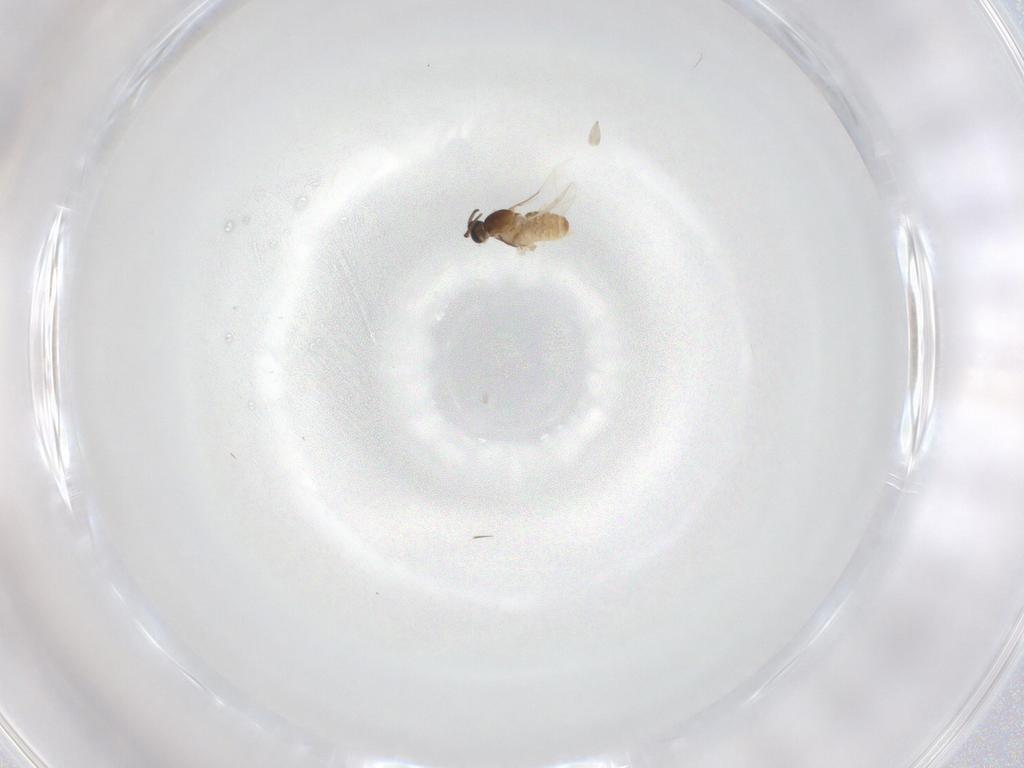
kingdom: Animalia
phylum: Arthropoda
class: Insecta
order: Diptera
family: Cecidomyiidae
